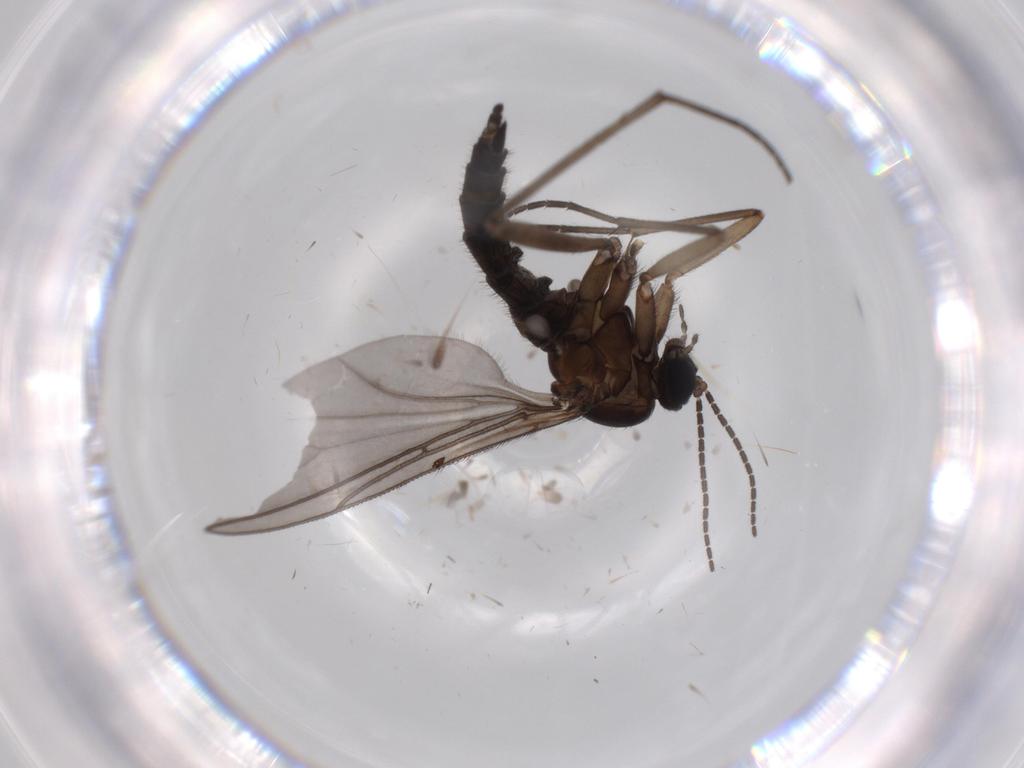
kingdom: Animalia
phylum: Arthropoda
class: Insecta
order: Diptera
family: Sciaridae
